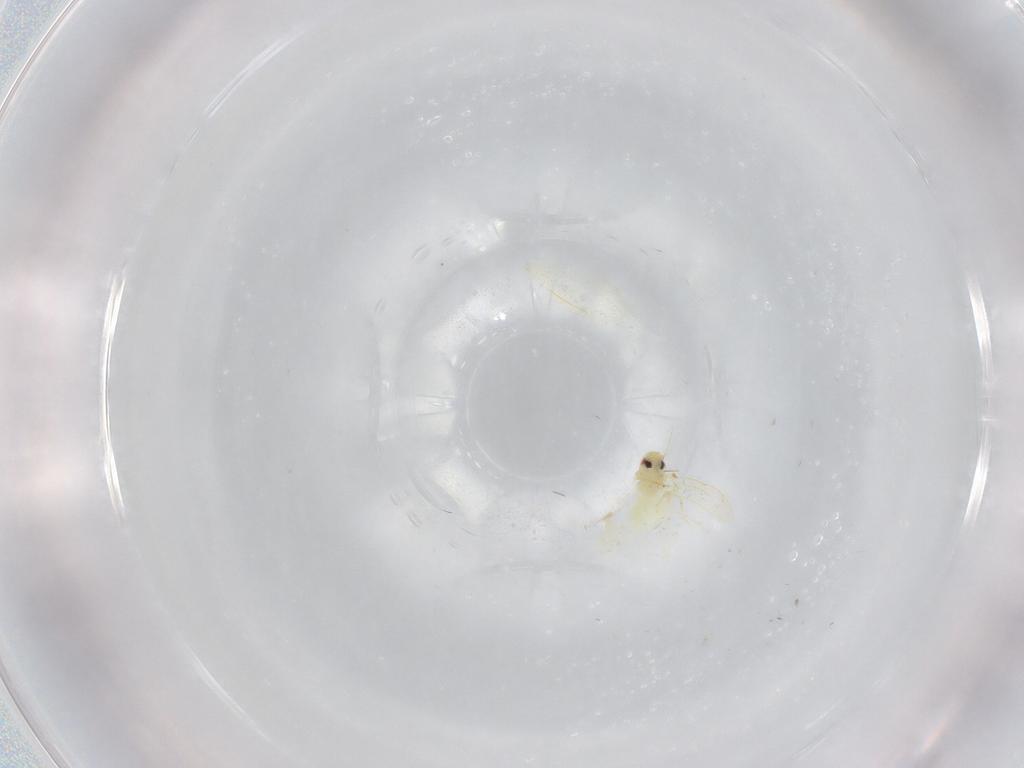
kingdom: Animalia
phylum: Arthropoda
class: Insecta
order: Hemiptera
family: Aleyrodidae
